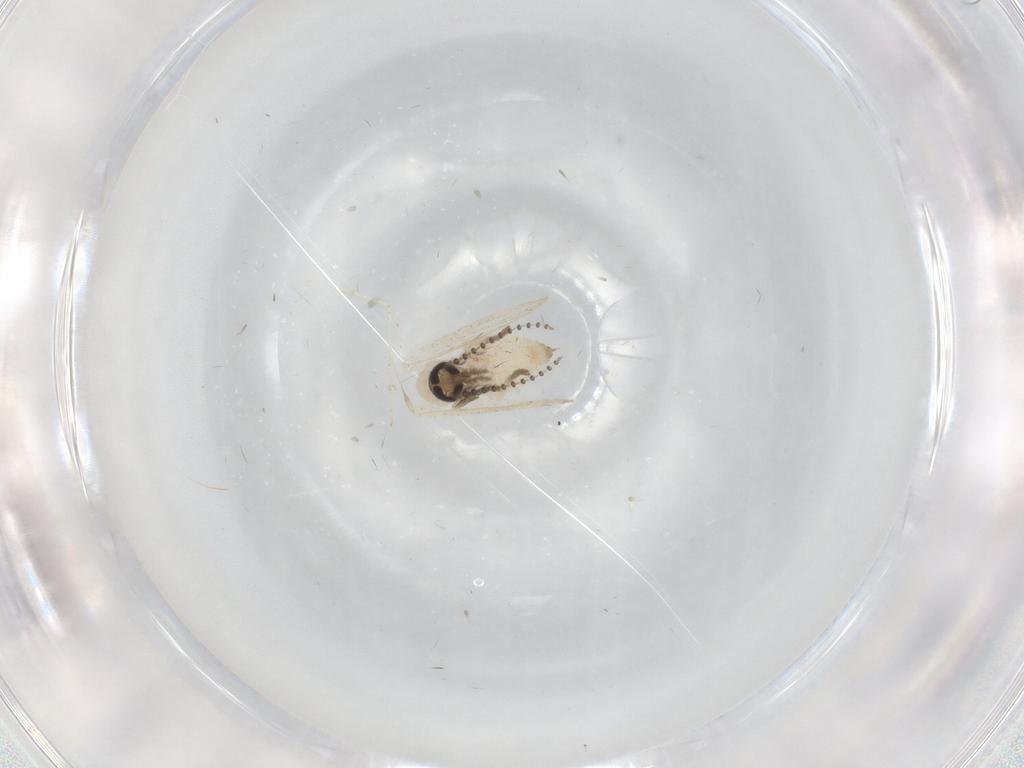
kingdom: Animalia
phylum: Arthropoda
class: Insecta
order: Diptera
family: Psychodidae
